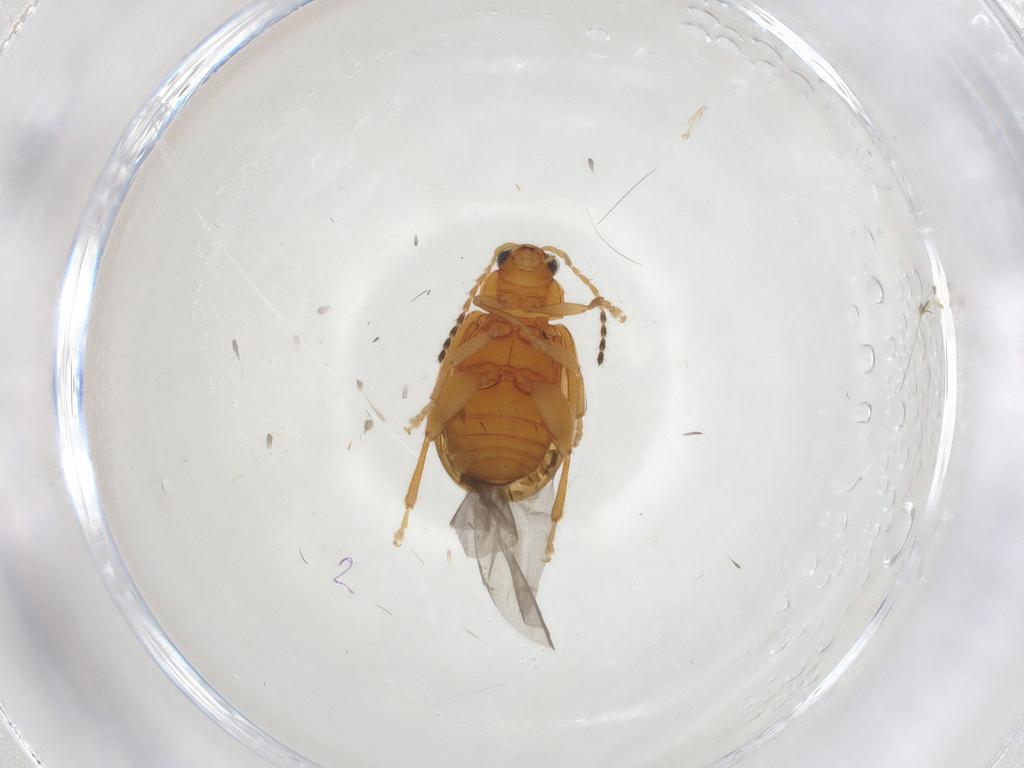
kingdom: Animalia
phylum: Arthropoda
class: Insecta
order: Coleoptera
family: Chrysomelidae
